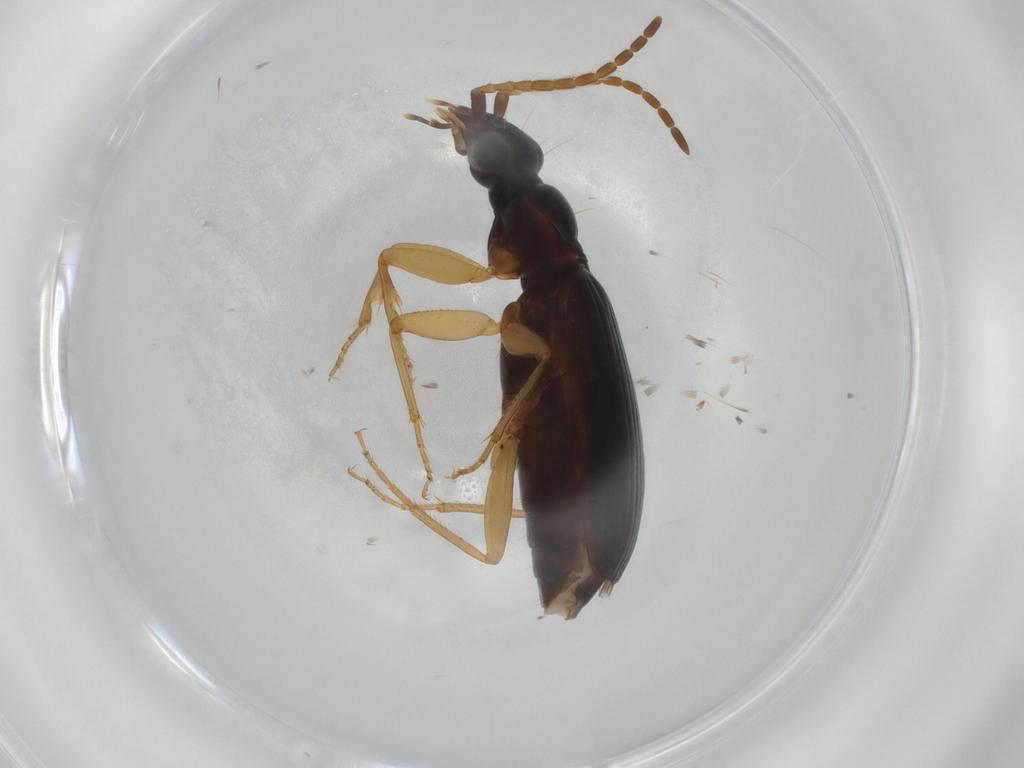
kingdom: Animalia
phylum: Arthropoda
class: Insecta
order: Coleoptera
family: Carabidae
